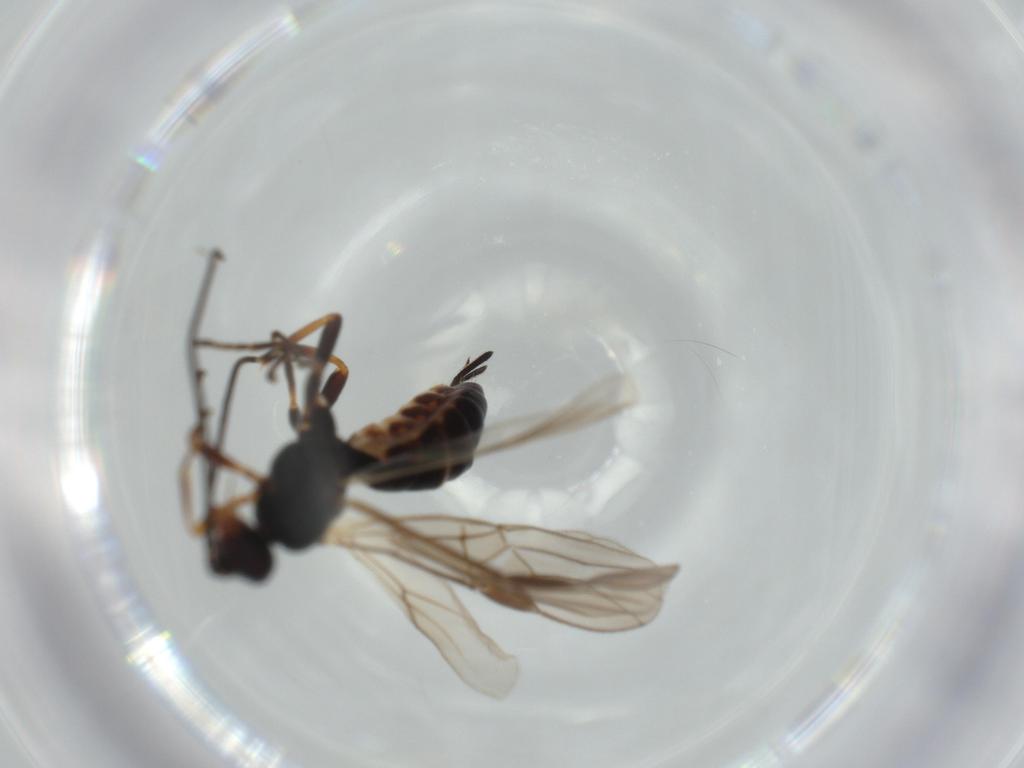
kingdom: Animalia
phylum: Arthropoda
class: Insecta
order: Hymenoptera
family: Braconidae
